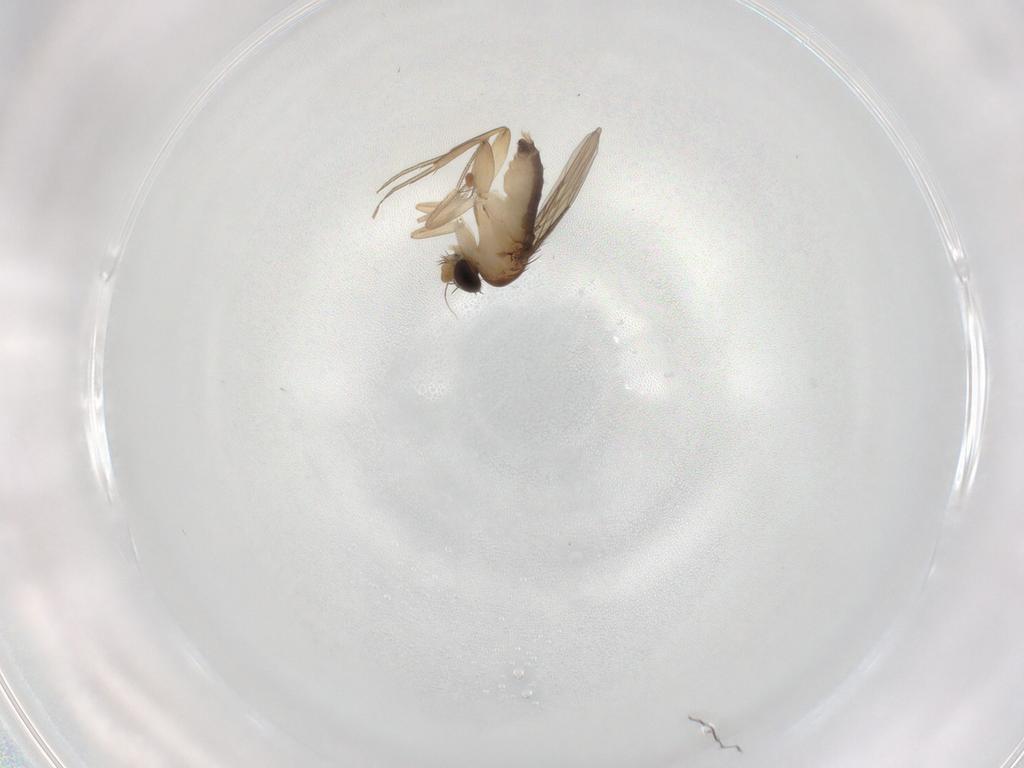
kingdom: Animalia
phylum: Arthropoda
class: Insecta
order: Diptera
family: Phoridae
